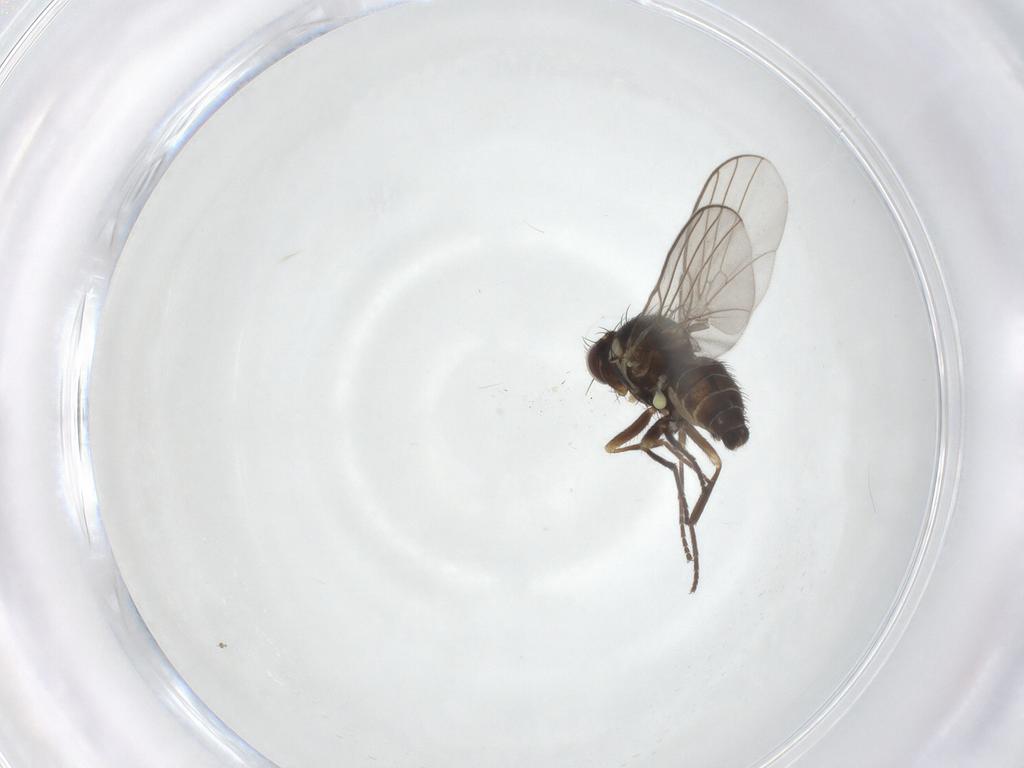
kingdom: Animalia
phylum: Arthropoda
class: Insecta
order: Diptera
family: Agromyzidae
